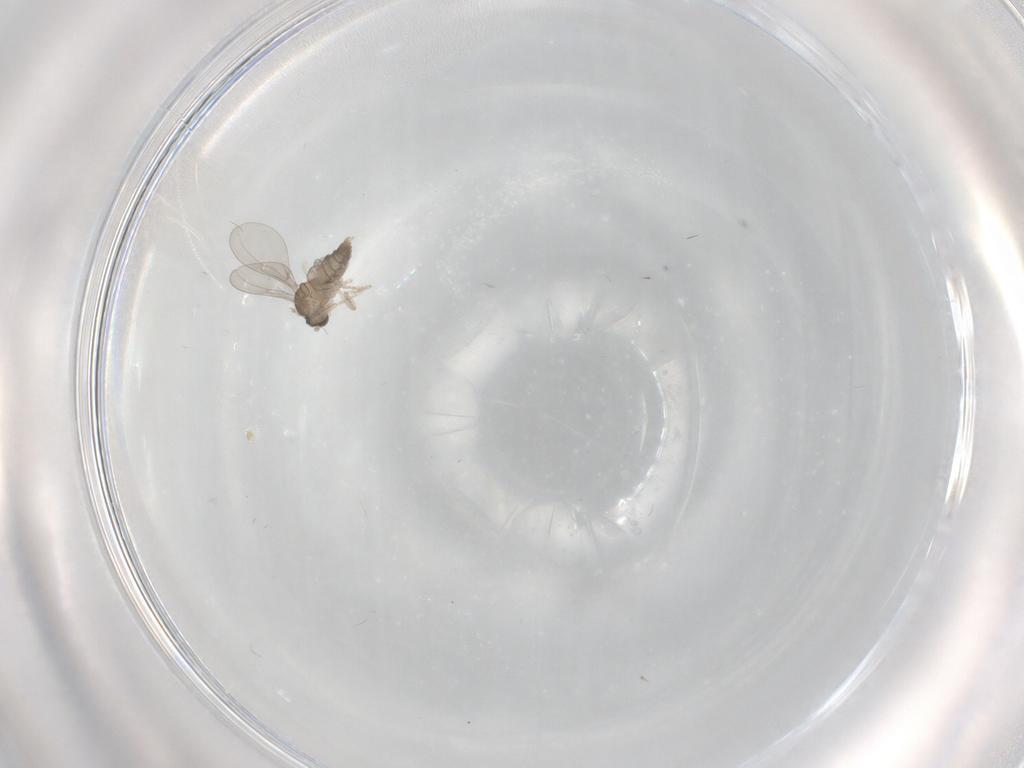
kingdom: Animalia
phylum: Arthropoda
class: Insecta
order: Diptera
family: Cecidomyiidae
